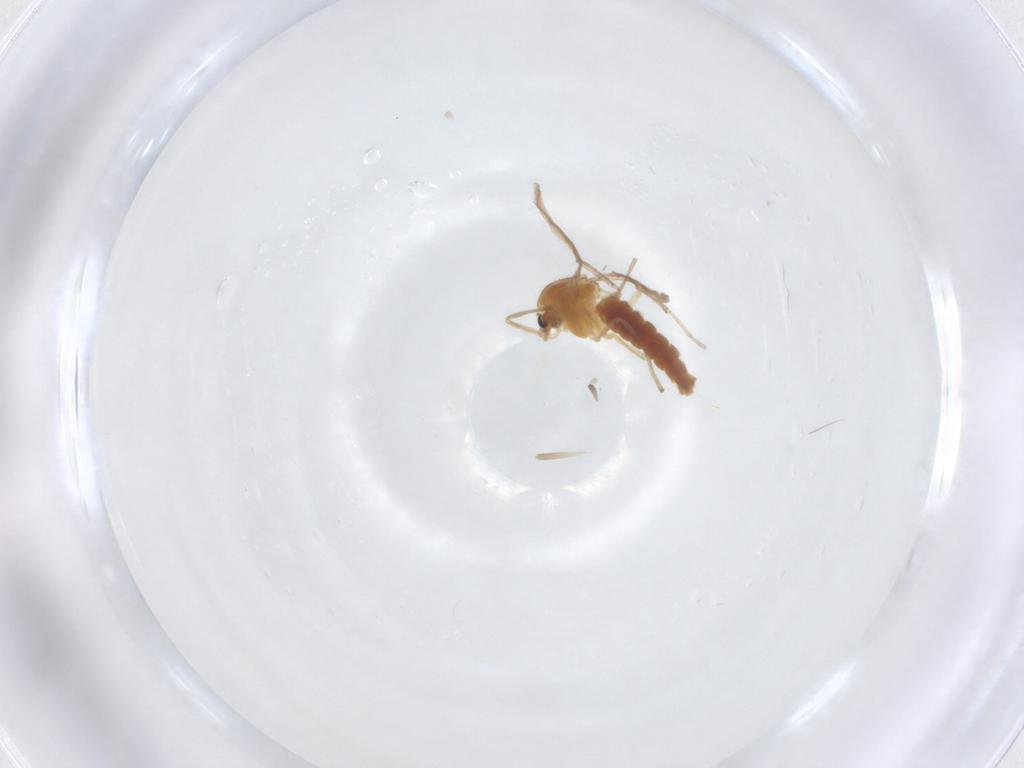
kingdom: Animalia
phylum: Arthropoda
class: Insecta
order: Diptera
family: Chironomidae
